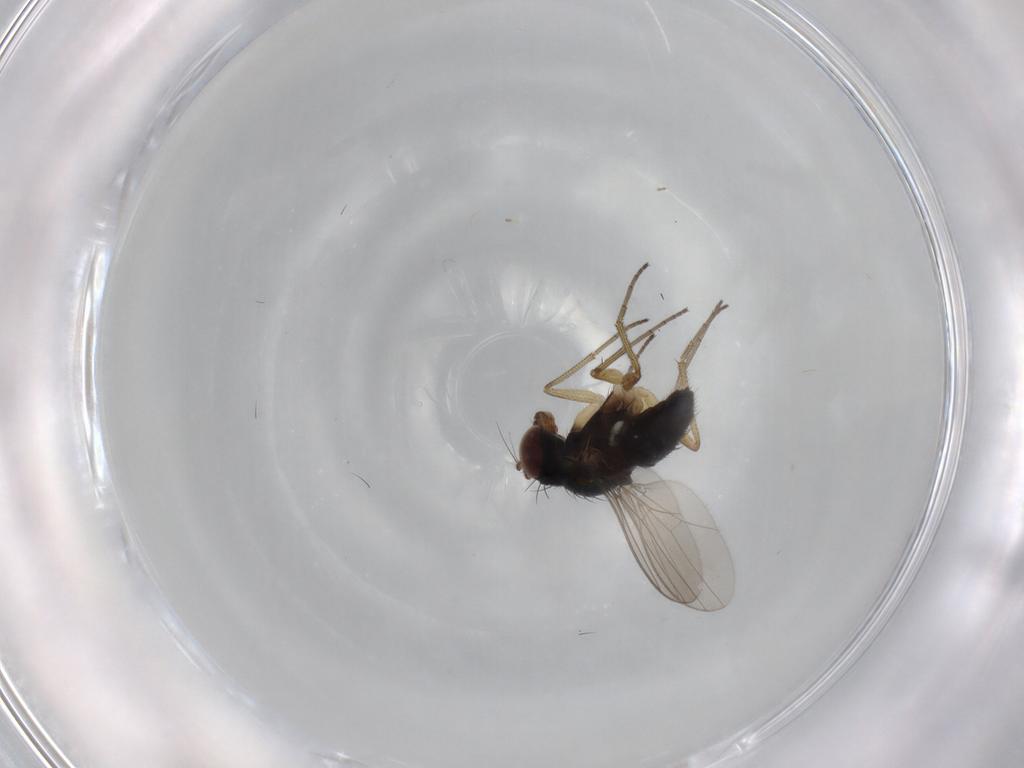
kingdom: Animalia
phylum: Arthropoda
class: Insecta
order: Diptera
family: Dolichopodidae
